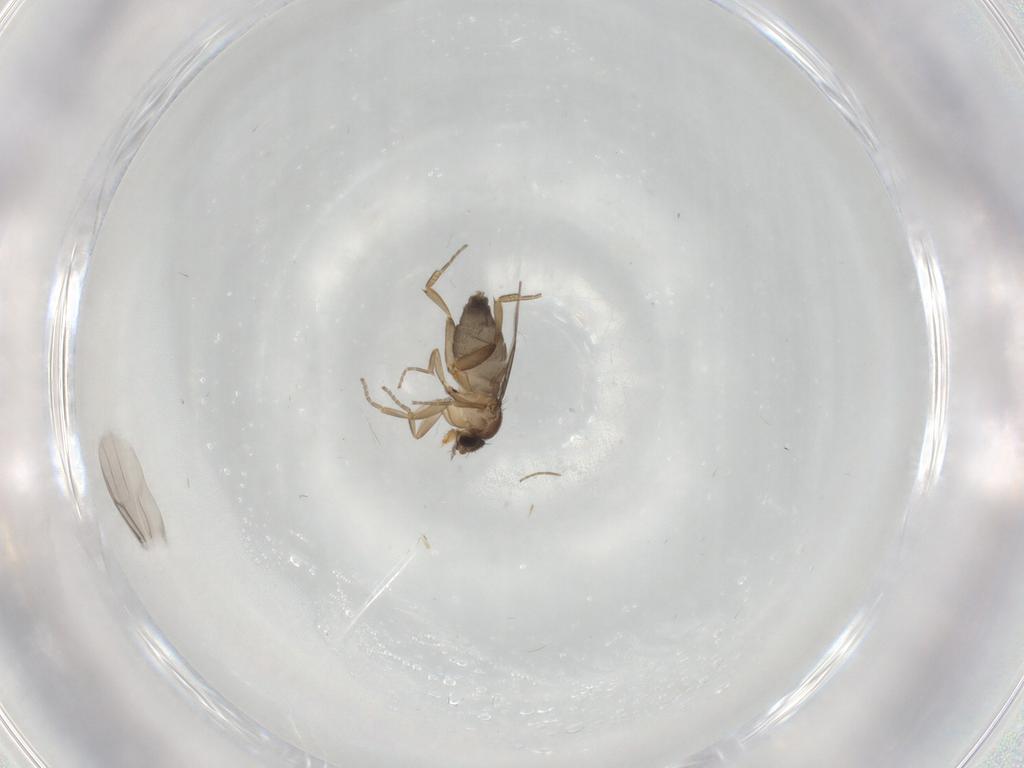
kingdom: Animalia
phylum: Arthropoda
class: Insecta
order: Diptera
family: Phoridae
